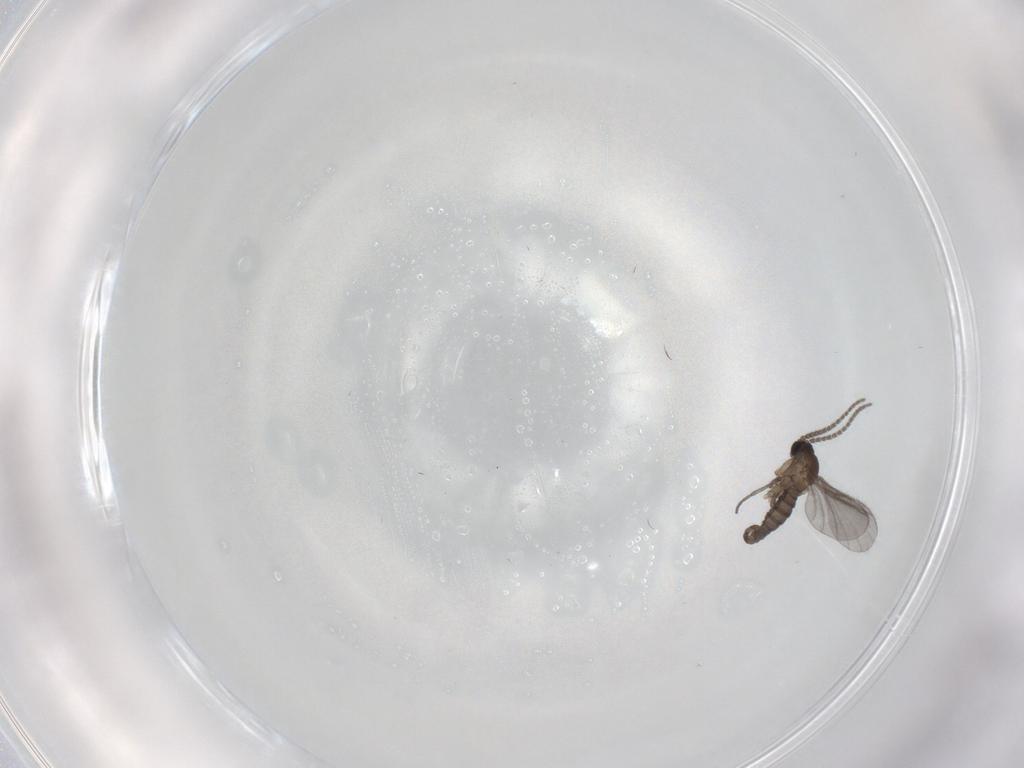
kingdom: Animalia
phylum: Arthropoda
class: Insecta
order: Diptera
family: Sciaridae
